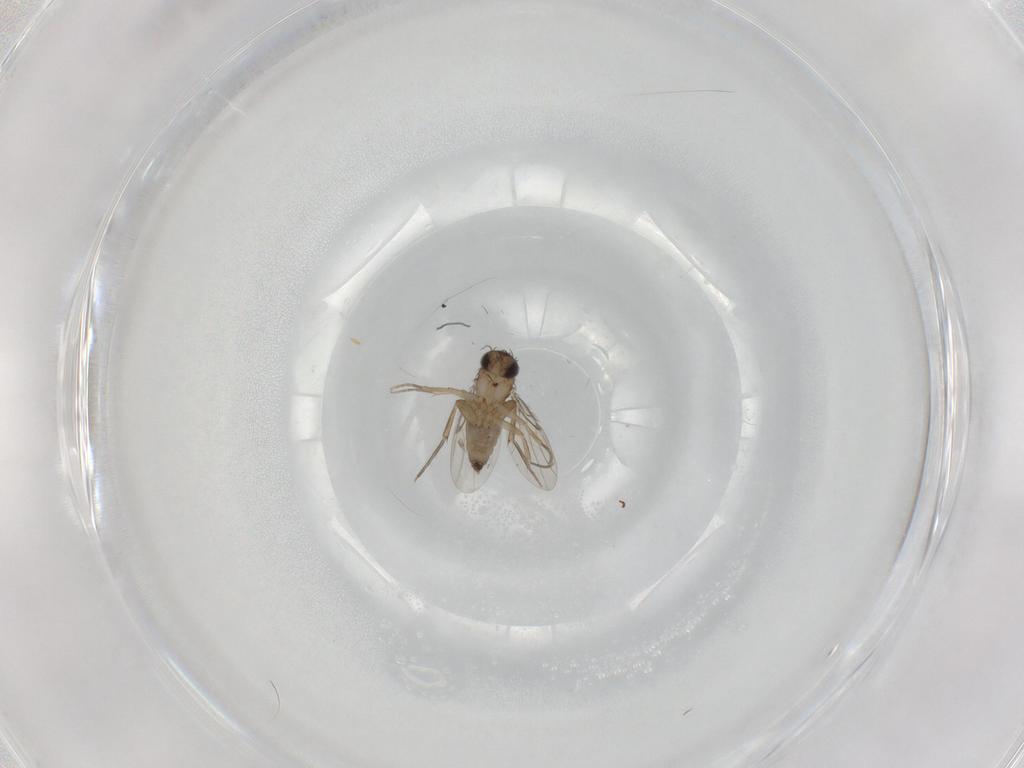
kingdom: Animalia
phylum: Arthropoda
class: Insecta
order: Diptera
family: Phoridae
